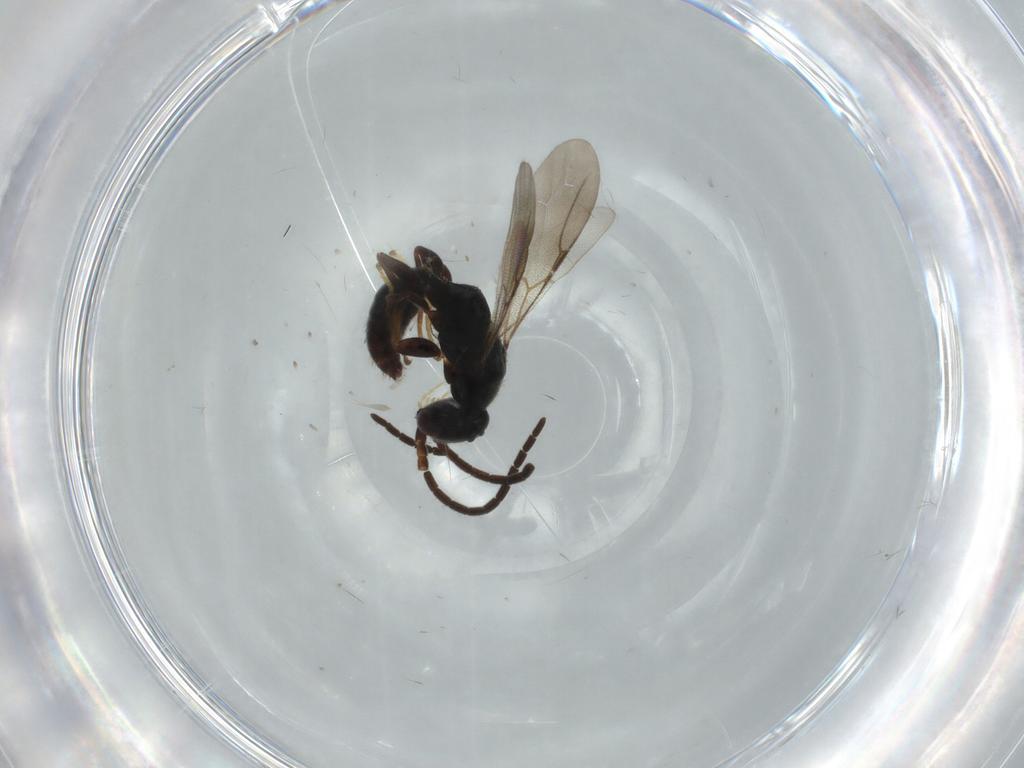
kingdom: Animalia
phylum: Arthropoda
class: Insecta
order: Hymenoptera
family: Bethylidae
